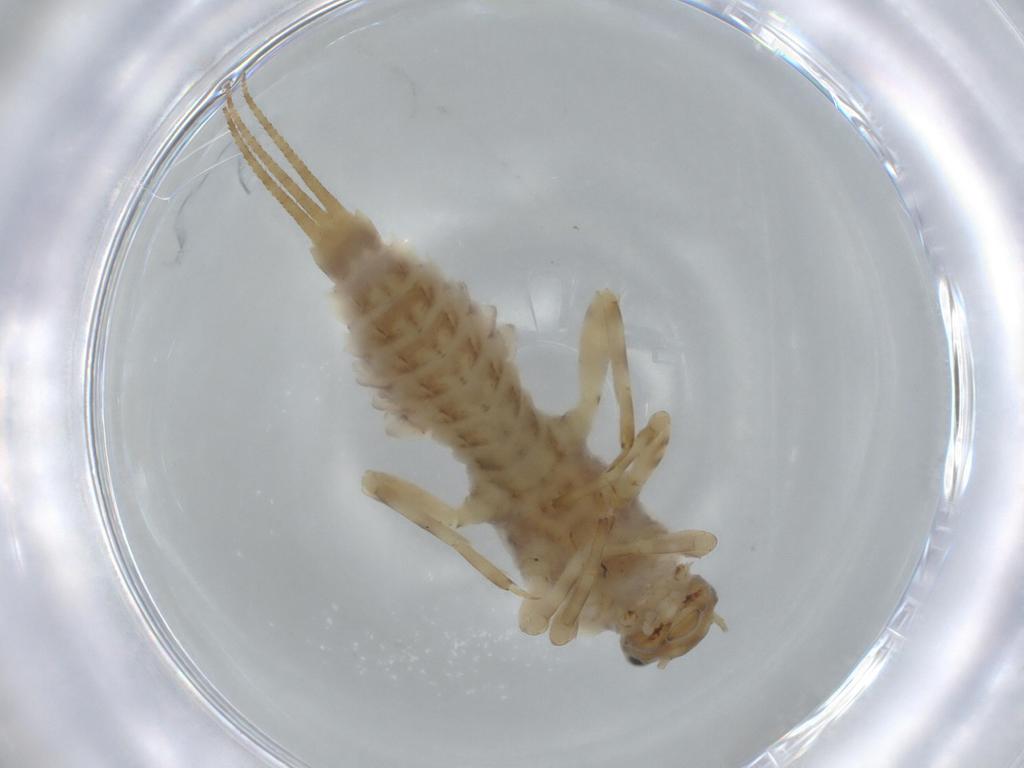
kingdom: Animalia
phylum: Arthropoda
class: Insecta
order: Ephemeroptera
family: Ephemerellidae
